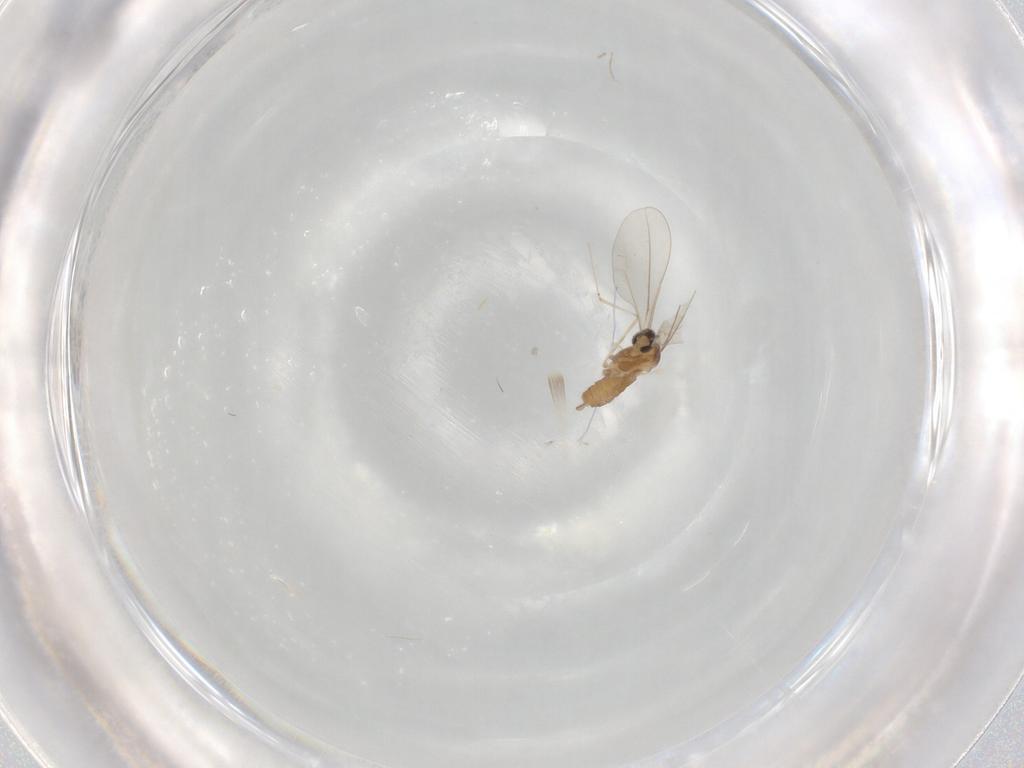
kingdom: Animalia
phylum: Arthropoda
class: Insecta
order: Diptera
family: Cecidomyiidae
